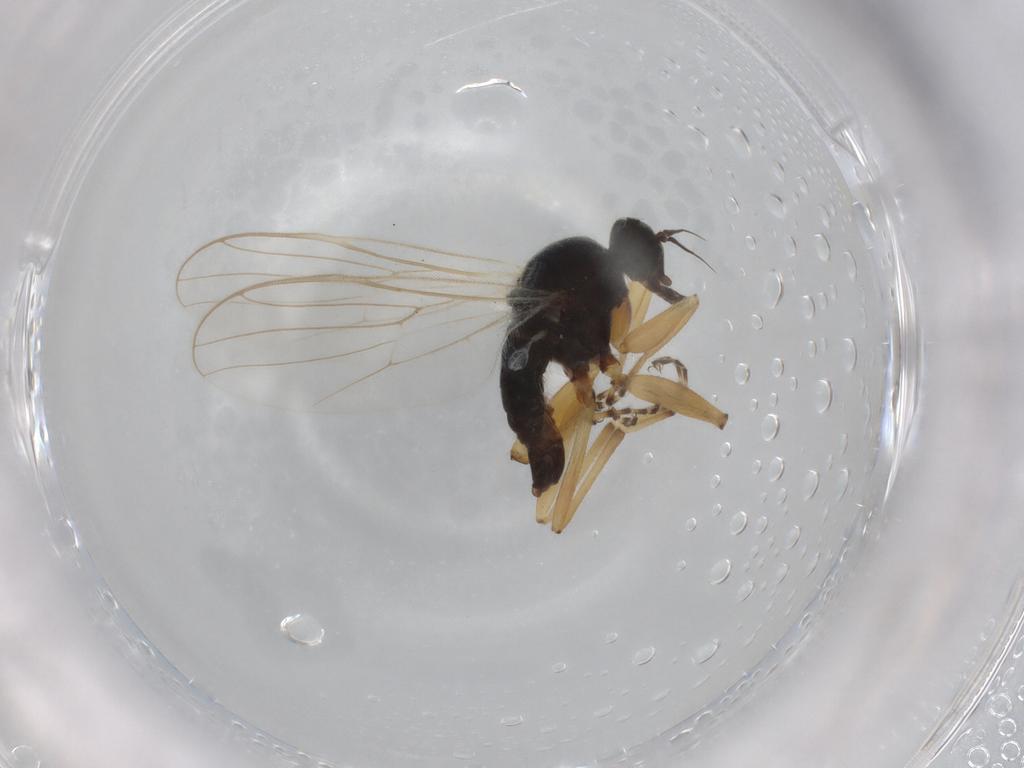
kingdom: Animalia
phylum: Arthropoda
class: Insecta
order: Diptera
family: Hybotidae
